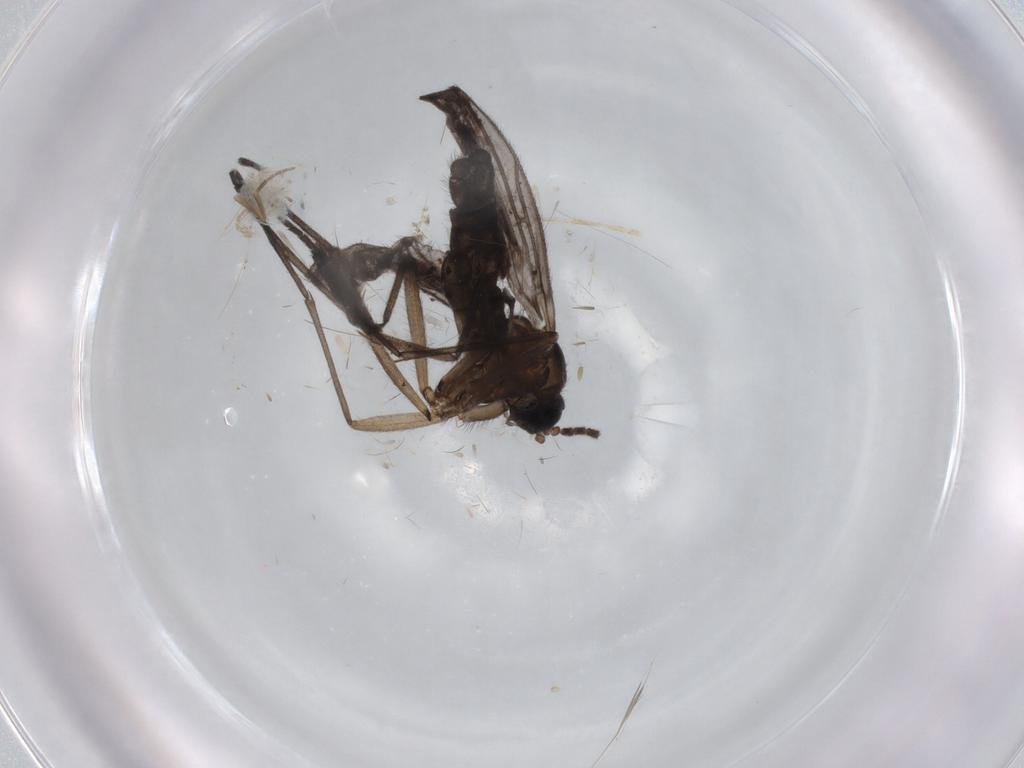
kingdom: Animalia
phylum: Arthropoda
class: Insecta
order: Diptera
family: Sciaridae
